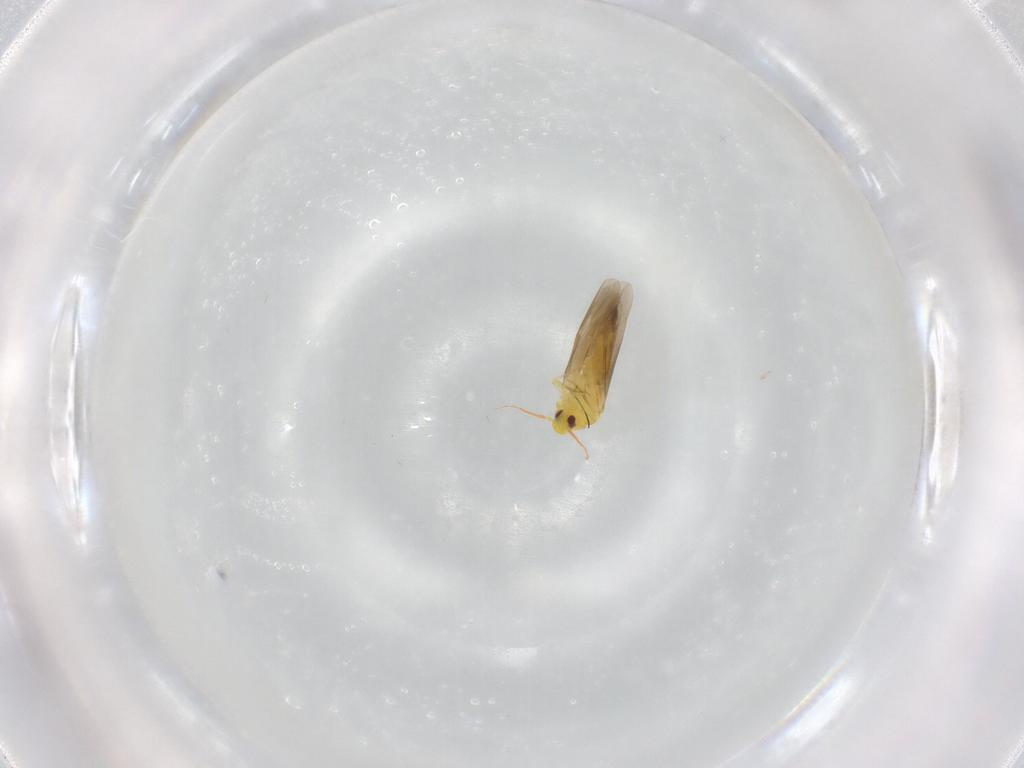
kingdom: Animalia
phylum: Arthropoda
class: Insecta
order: Hemiptera
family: Aleyrodidae
